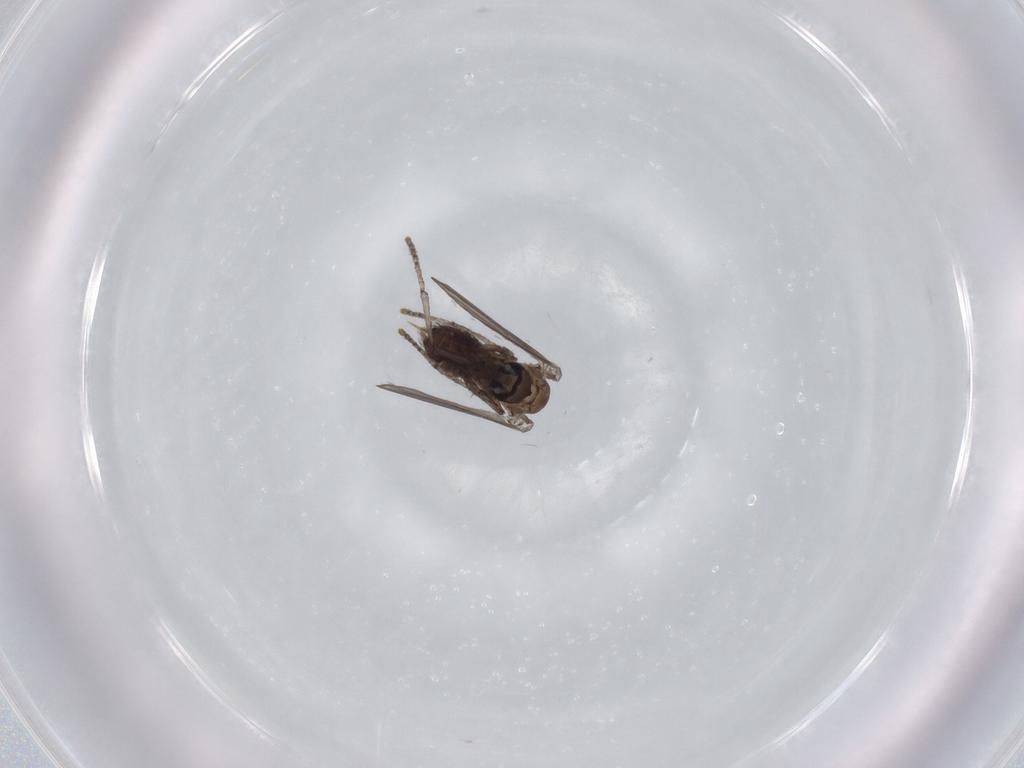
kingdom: Animalia
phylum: Arthropoda
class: Insecta
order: Diptera
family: Psychodidae
